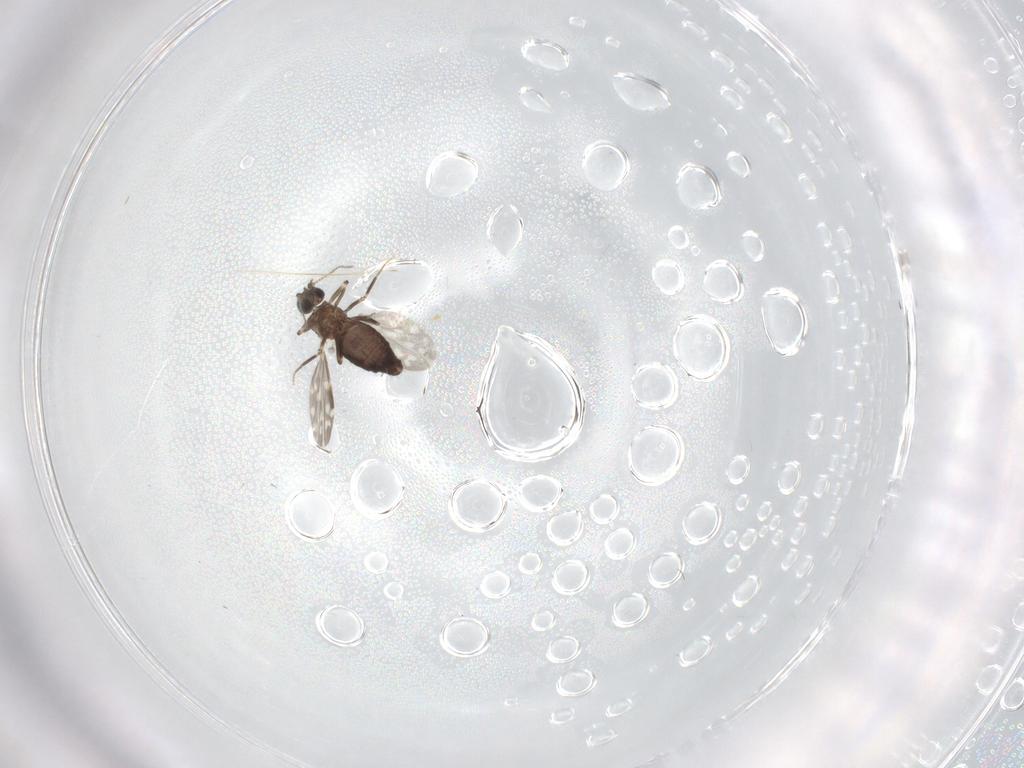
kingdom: Animalia
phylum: Arthropoda
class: Insecta
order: Diptera
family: Ceratopogonidae
